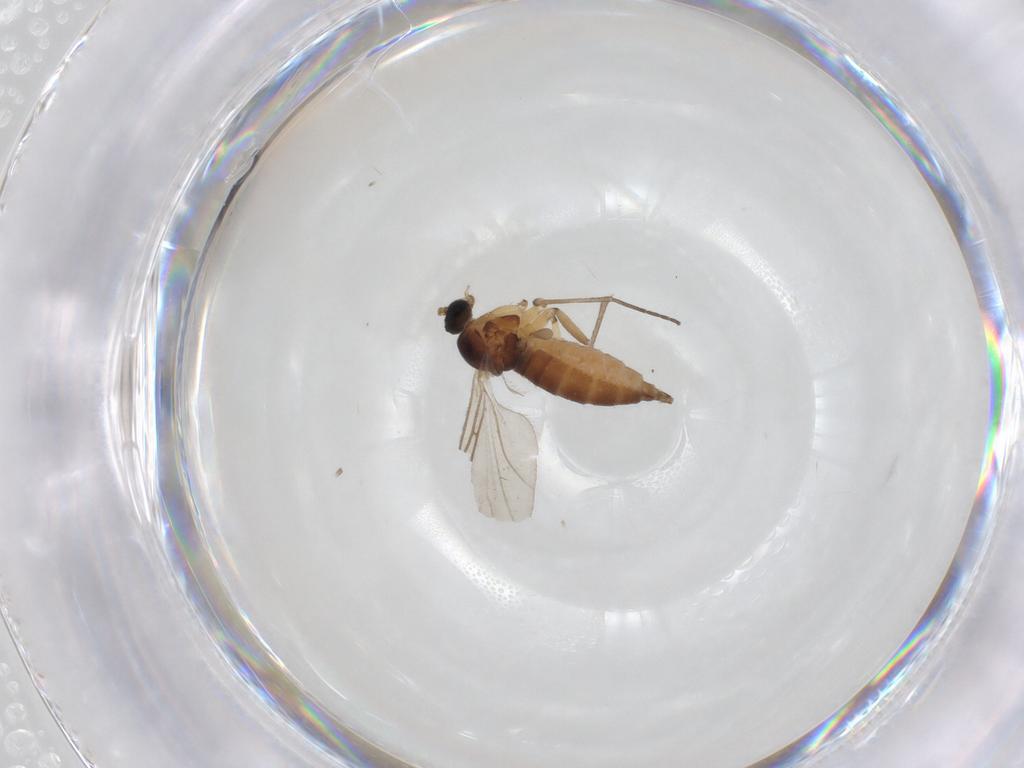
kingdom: Animalia
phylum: Arthropoda
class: Insecta
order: Diptera
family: Sciaridae
